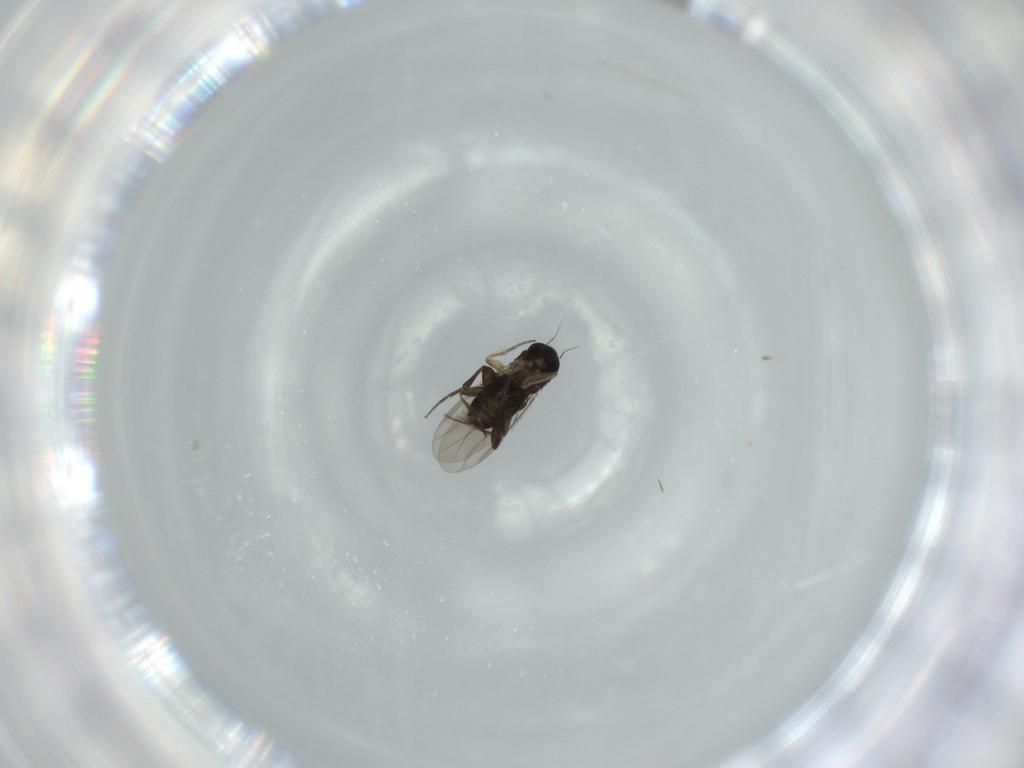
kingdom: Animalia
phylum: Arthropoda
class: Insecta
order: Diptera
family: Phoridae
